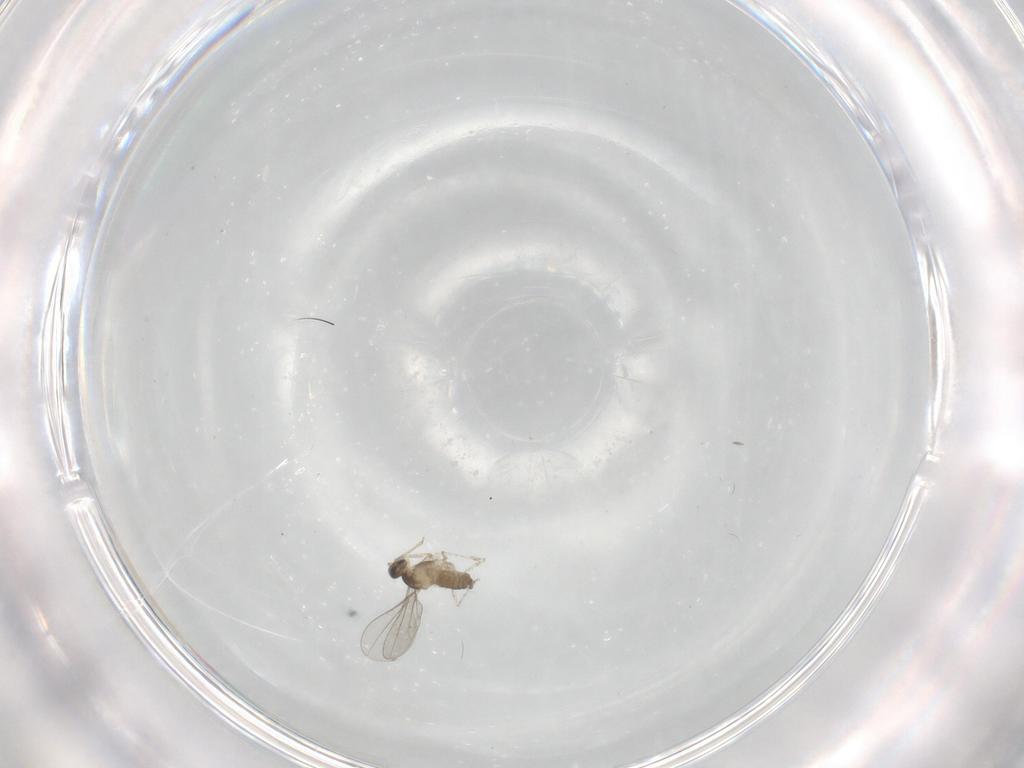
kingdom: Animalia
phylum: Arthropoda
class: Insecta
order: Diptera
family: Cecidomyiidae
